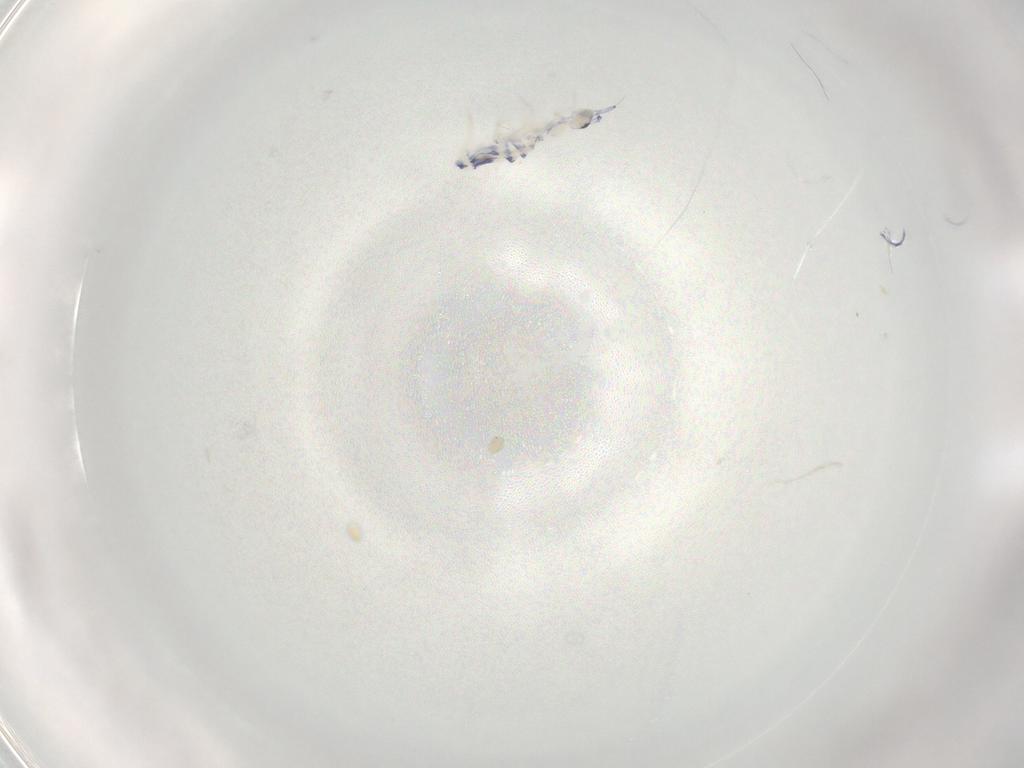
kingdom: Animalia
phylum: Arthropoda
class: Collembola
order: Entomobryomorpha
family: Entomobryidae
